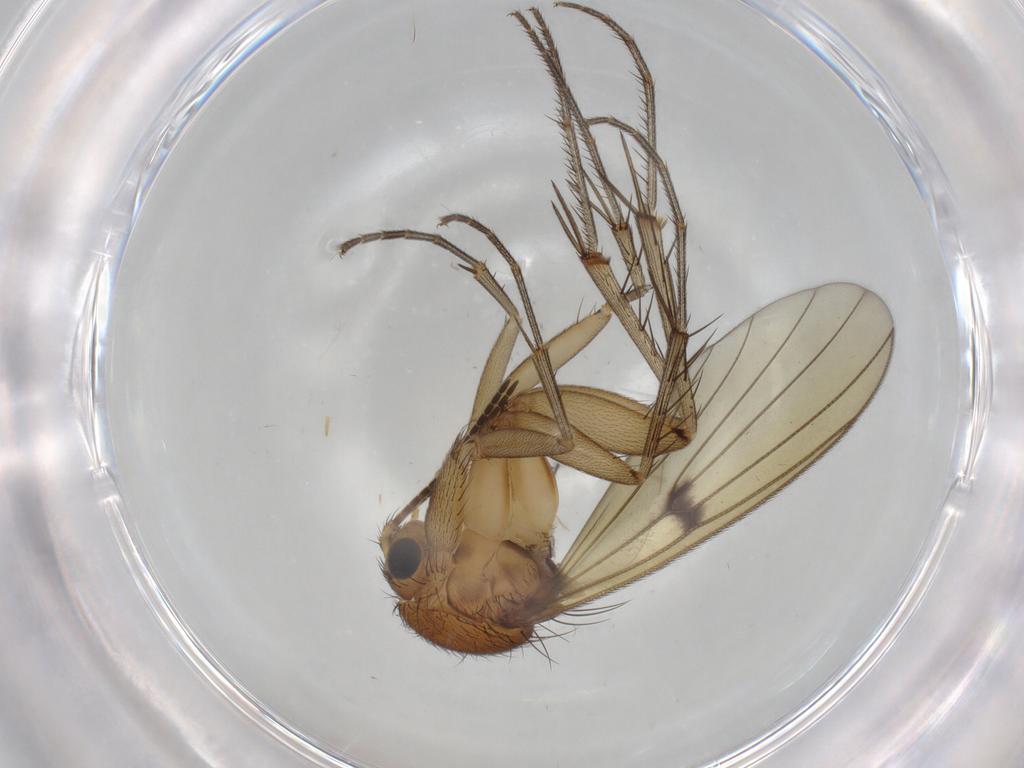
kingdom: Animalia
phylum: Arthropoda
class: Insecta
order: Diptera
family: Mycetophilidae
